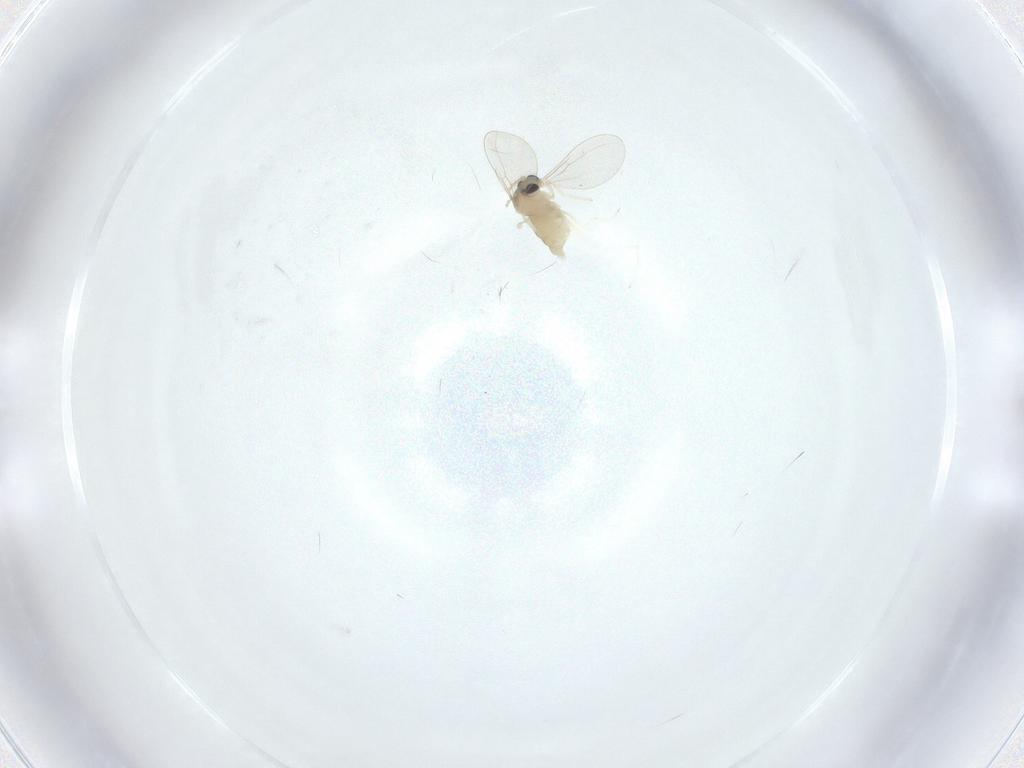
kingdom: Animalia
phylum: Arthropoda
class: Insecta
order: Diptera
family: Cecidomyiidae
